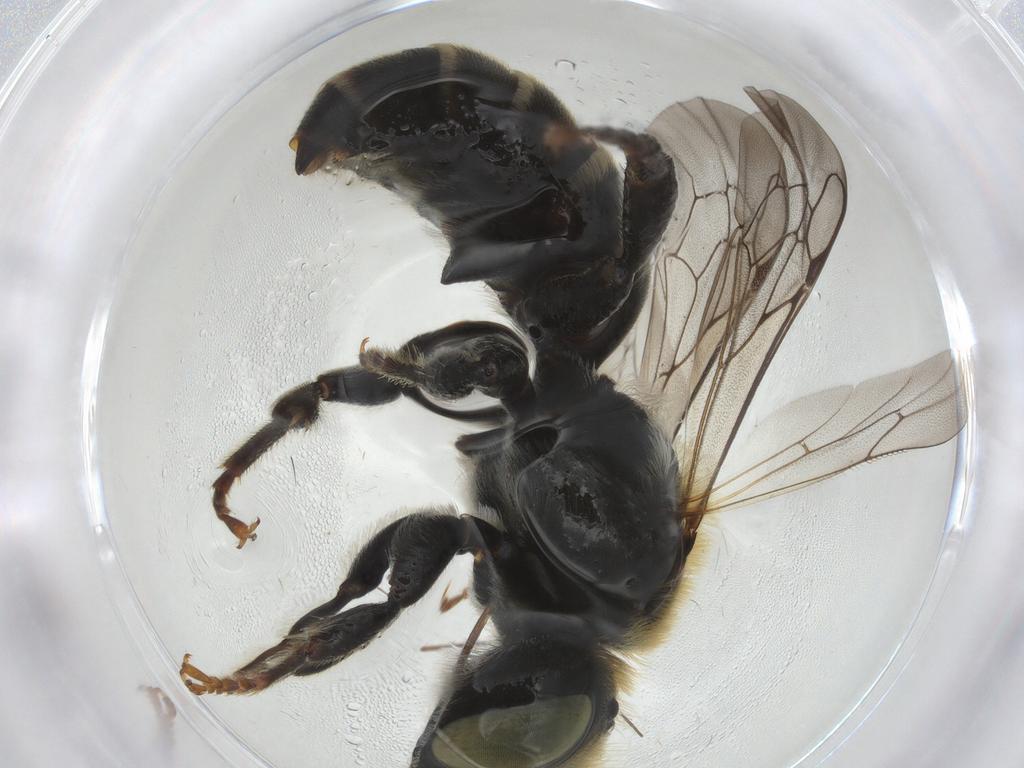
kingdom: Animalia
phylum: Arthropoda
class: Insecta
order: Hymenoptera
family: Megachilidae
